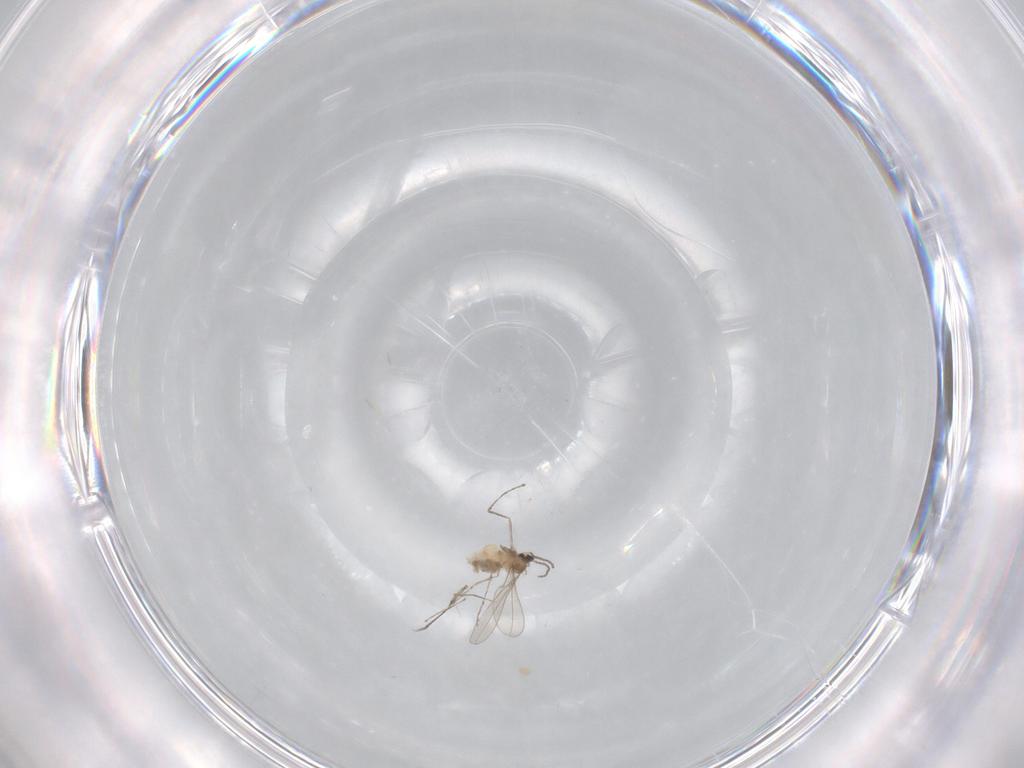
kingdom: Animalia
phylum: Arthropoda
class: Insecta
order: Diptera
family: Cecidomyiidae
